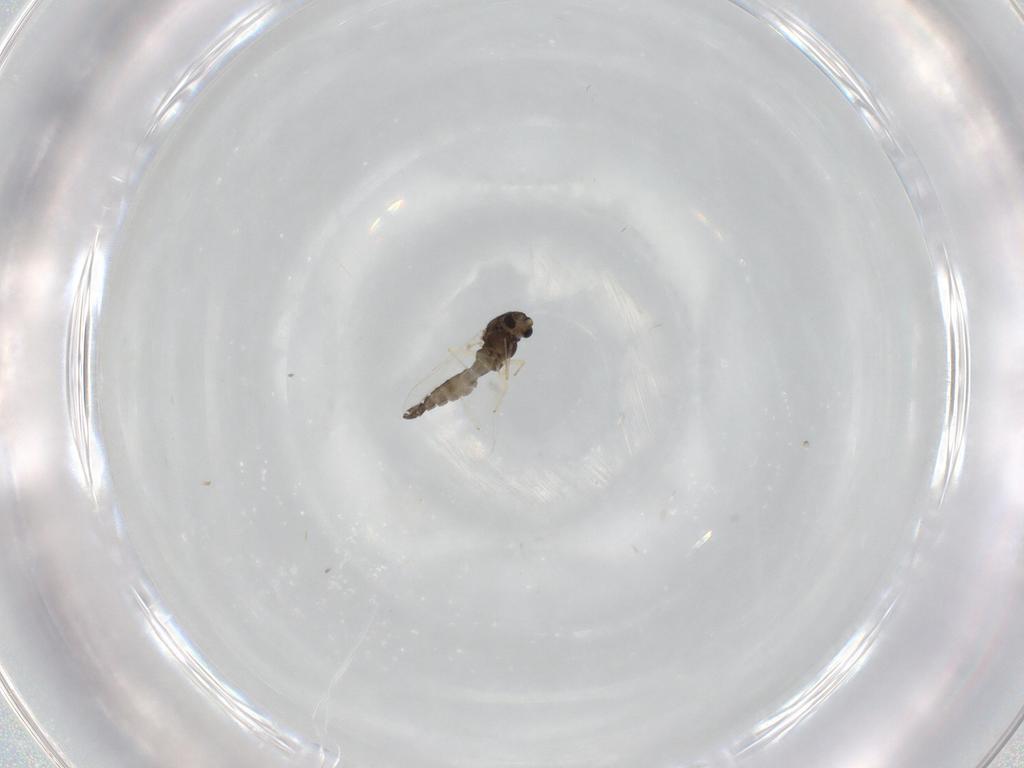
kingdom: Animalia
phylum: Arthropoda
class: Insecta
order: Diptera
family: Chironomidae
